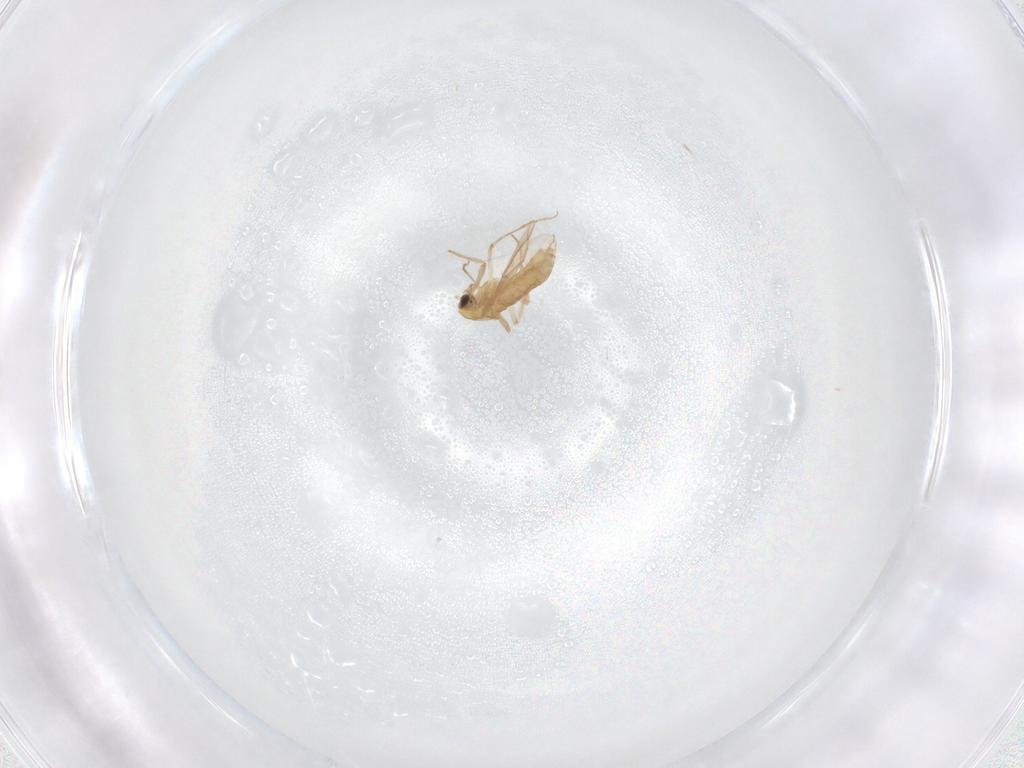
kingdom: Animalia
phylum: Arthropoda
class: Insecta
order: Diptera
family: Chironomidae
